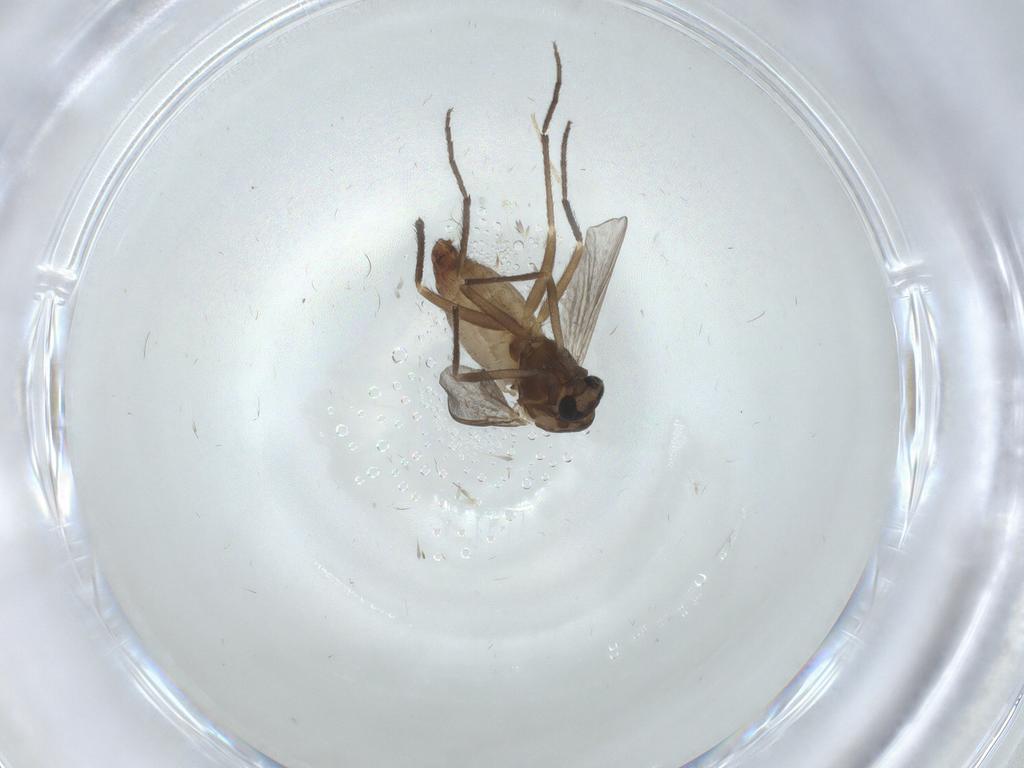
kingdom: Animalia
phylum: Arthropoda
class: Insecta
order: Diptera
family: Chironomidae
